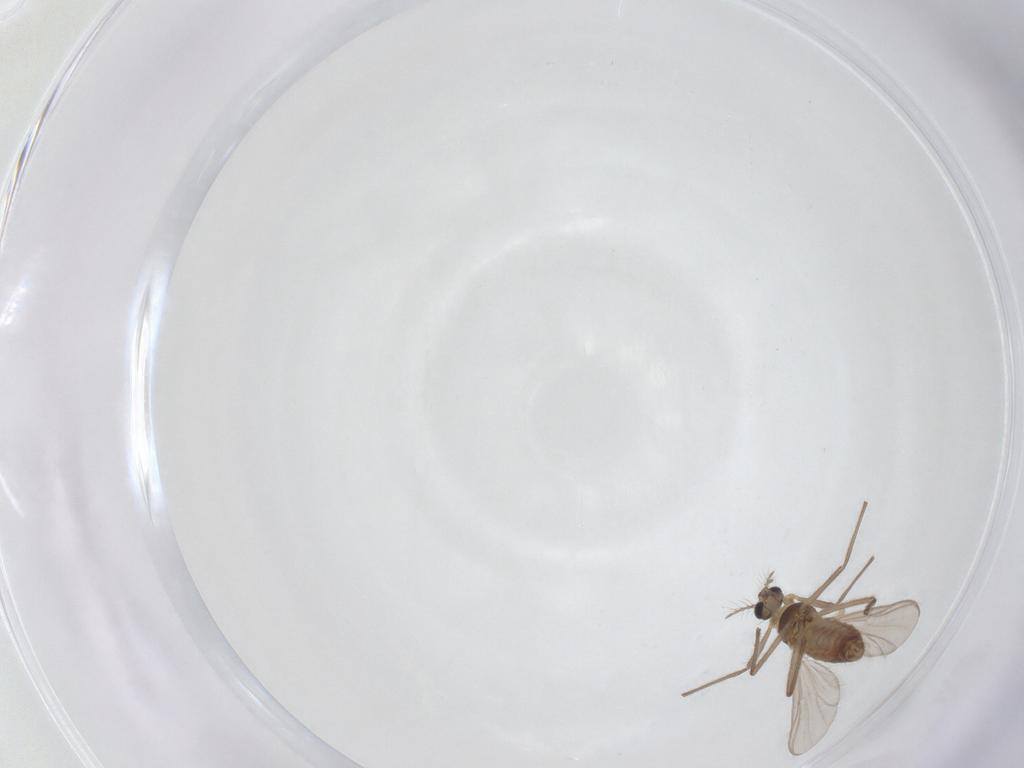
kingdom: Animalia
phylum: Arthropoda
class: Insecta
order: Diptera
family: Chironomidae
